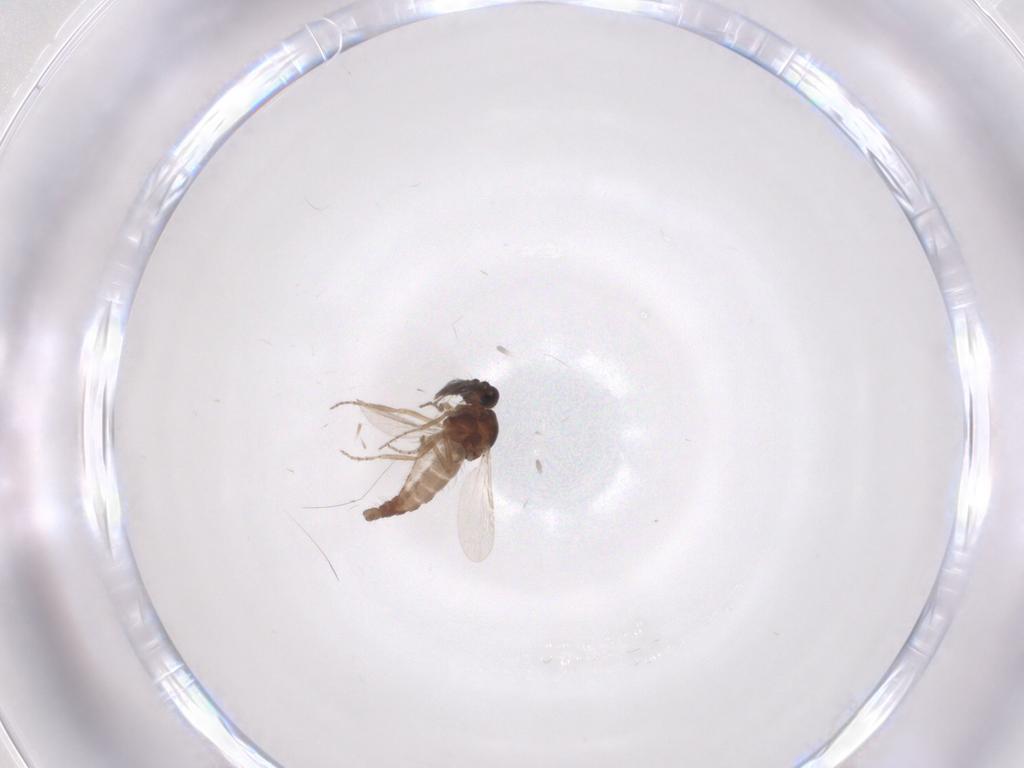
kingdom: Animalia
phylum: Arthropoda
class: Insecta
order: Diptera
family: Ceratopogonidae
